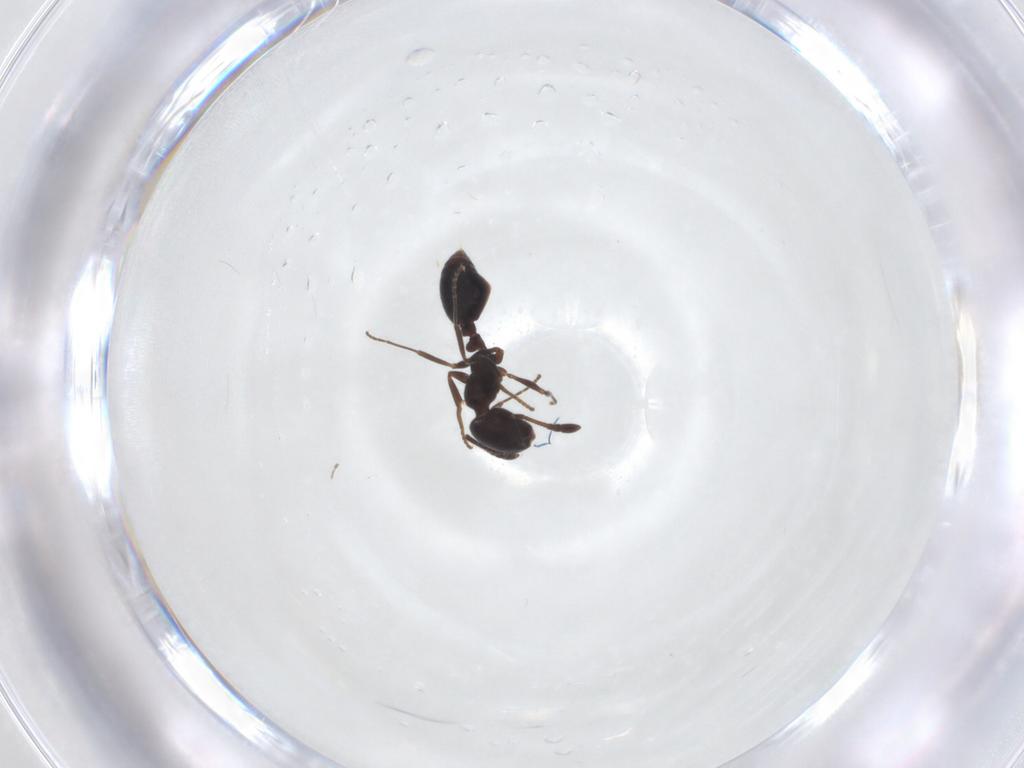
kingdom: Animalia
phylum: Arthropoda
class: Insecta
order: Hymenoptera
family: Formicidae
